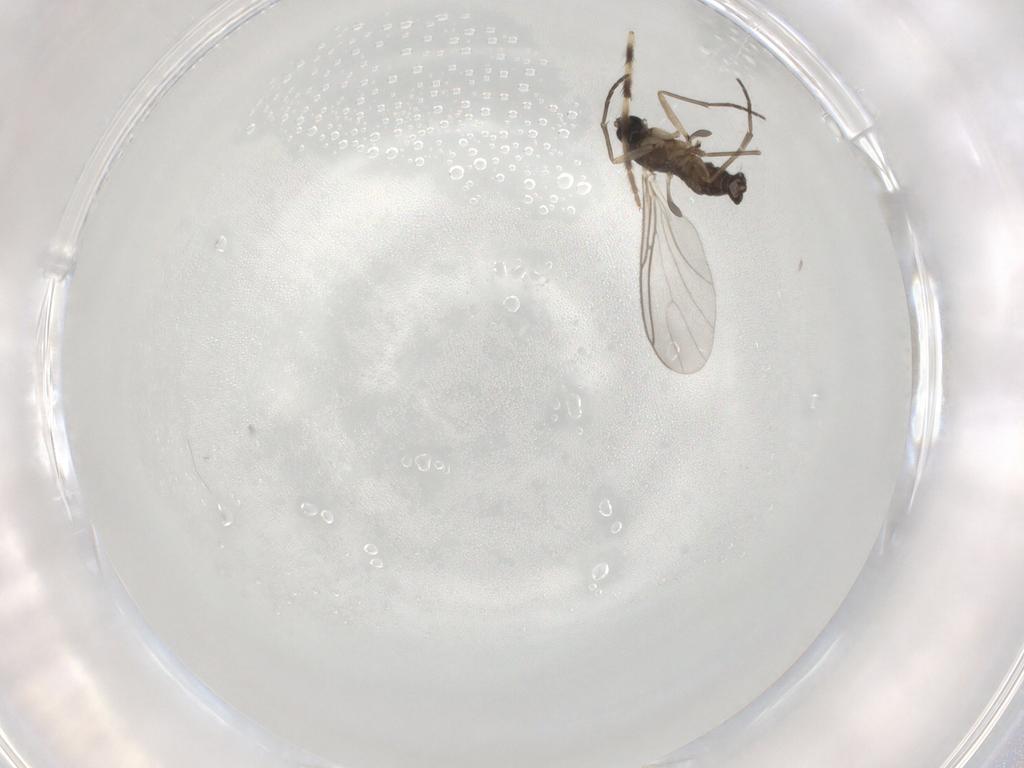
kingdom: Animalia
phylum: Arthropoda
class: Insecta
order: Diptera
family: Sciaridae
